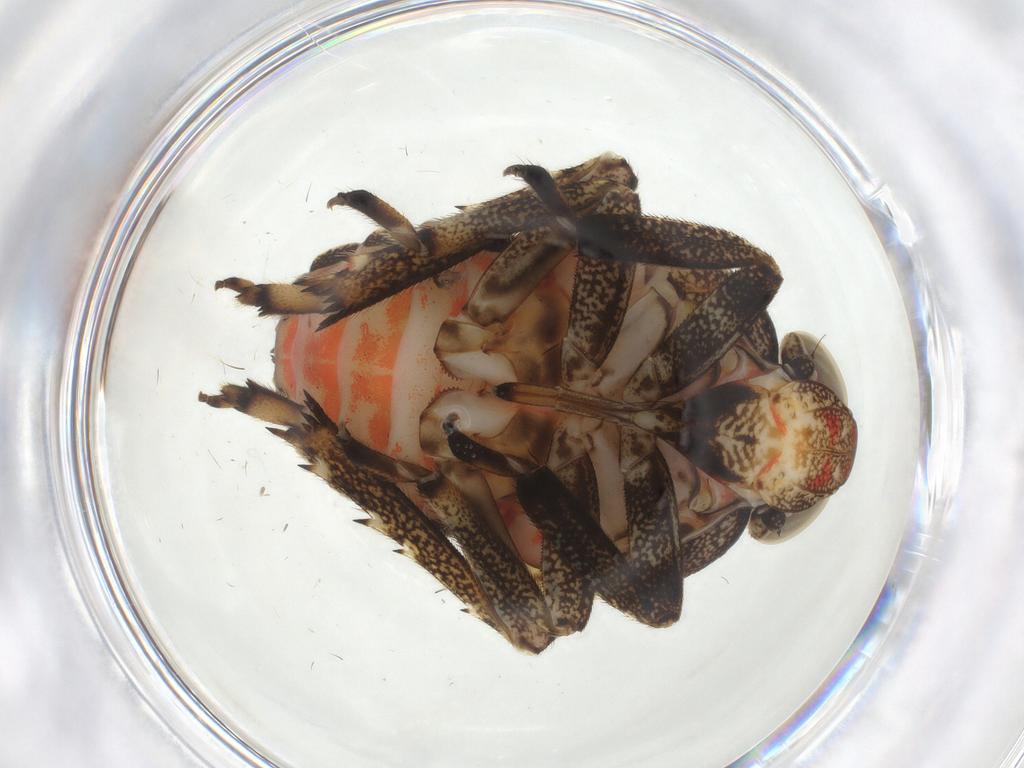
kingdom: Animalia
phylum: Arthropoda
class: Insecta
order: Hemiptera
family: Issidae
